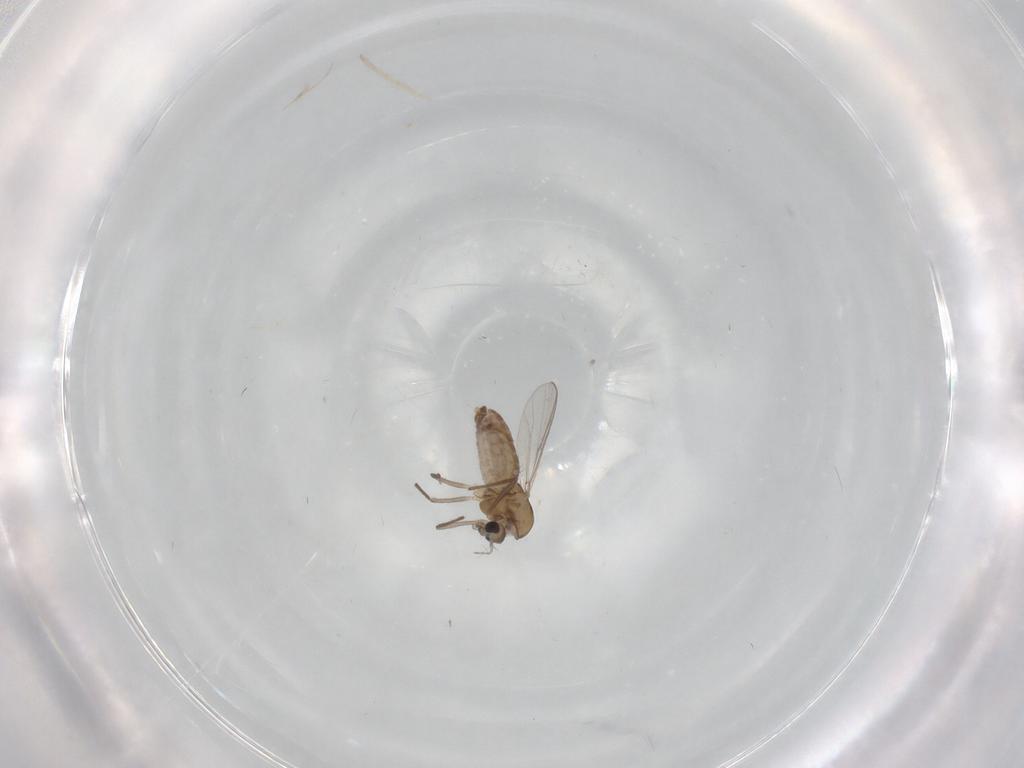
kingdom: Animalia
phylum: Arthropoda
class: Insecta
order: Diptera
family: Chironomidae
